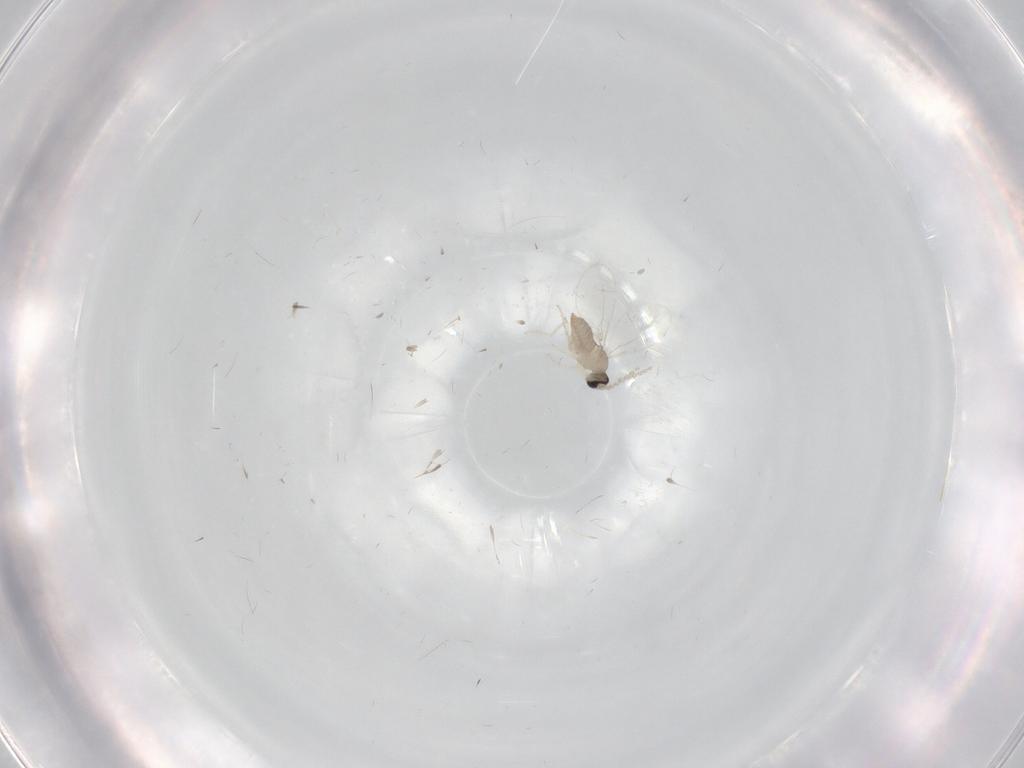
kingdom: Animalia
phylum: Arthropoda
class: Insecta
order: Diptera
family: Cecidomyiidae
